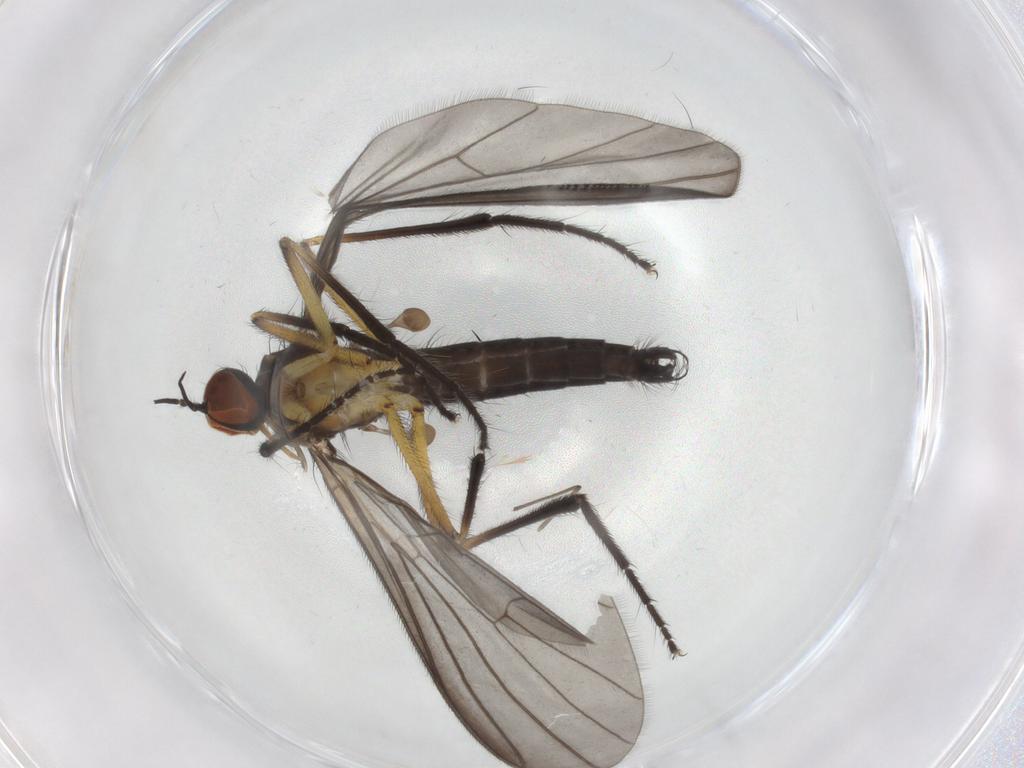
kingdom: Animalia
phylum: Arthropoda
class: Insecta
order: Diptera
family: Empididae
